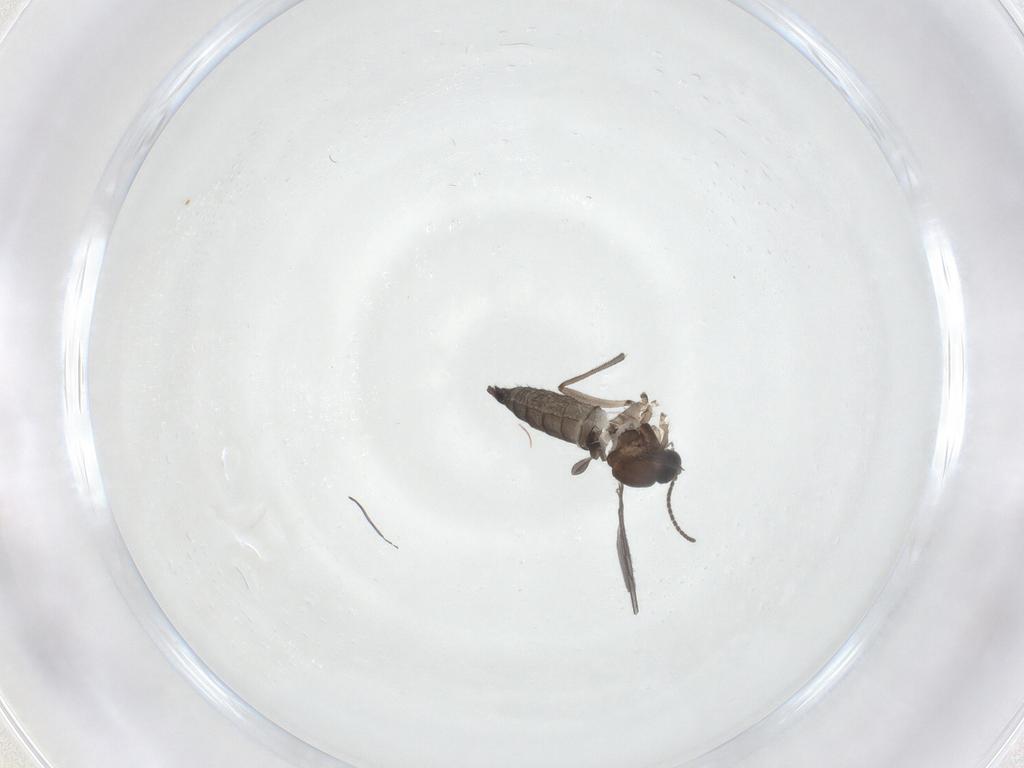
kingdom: Animalia
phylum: Arthropoda
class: Insecta
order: Diptera
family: Sciaridae
